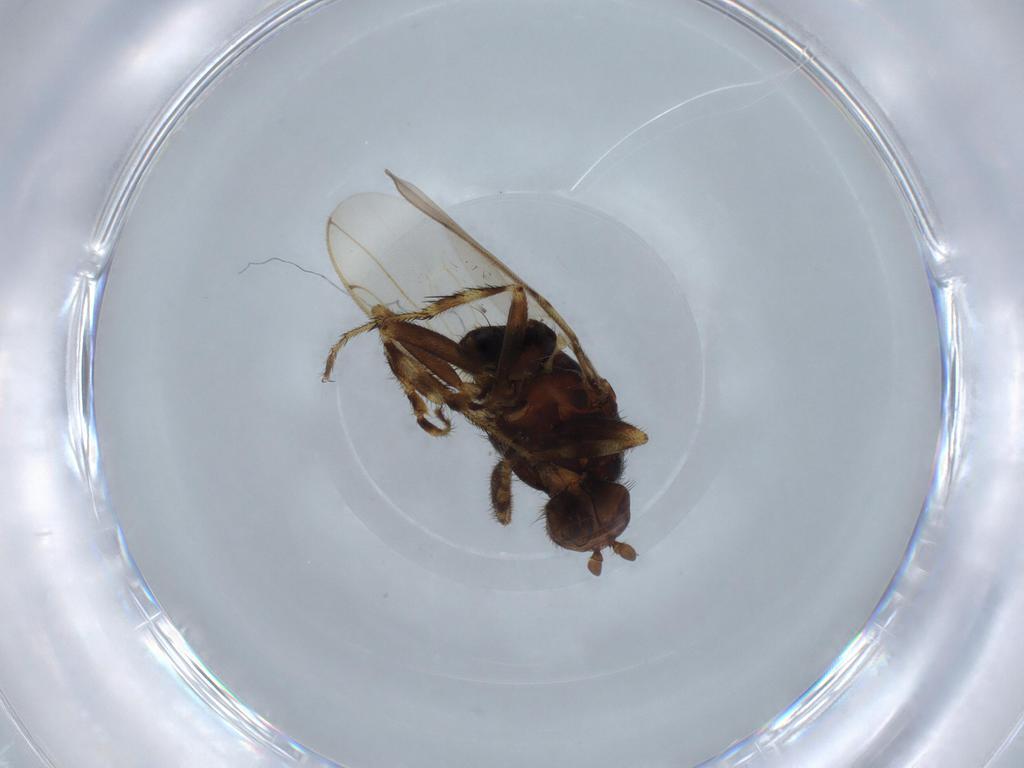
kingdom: Animalia
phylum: Arthropoda
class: Insecta
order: Diptera
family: Sphaeroceridae
